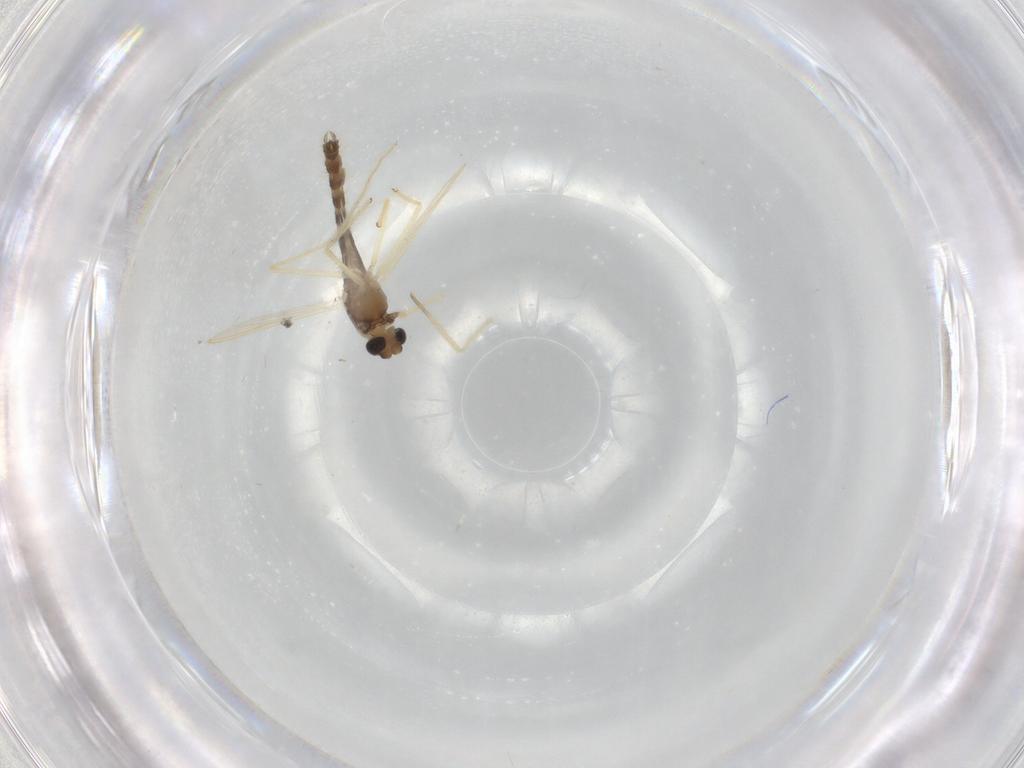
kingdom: Animalia
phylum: Arthropoda
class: Insecta
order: Diptera
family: Chironomidae
